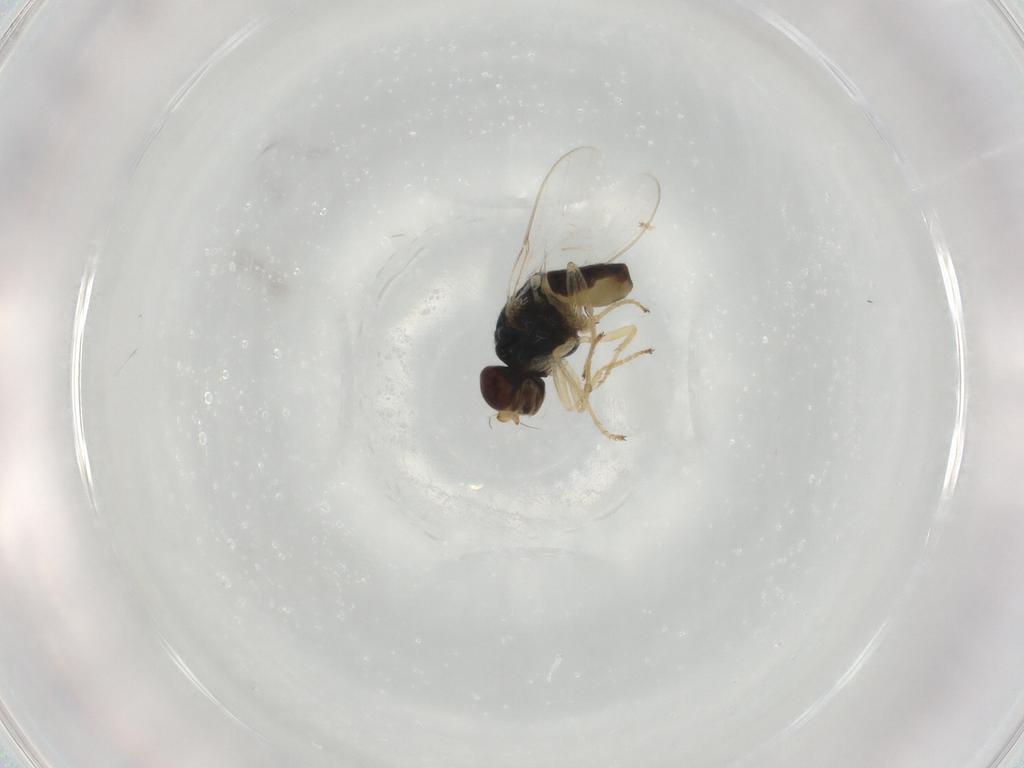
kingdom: Animalia
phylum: Arthropoda
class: Insecta
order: Diptera
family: Chloropidae
